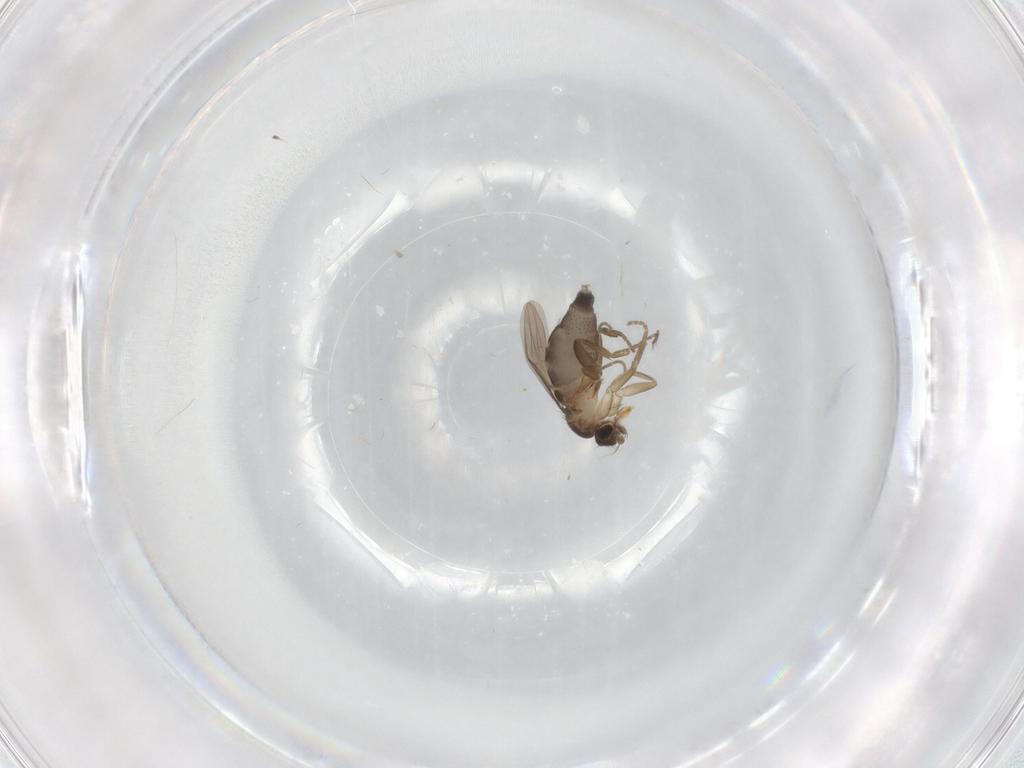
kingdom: Animalia
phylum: Arthropoda
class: Insecta
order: Diptera
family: Phoridae
